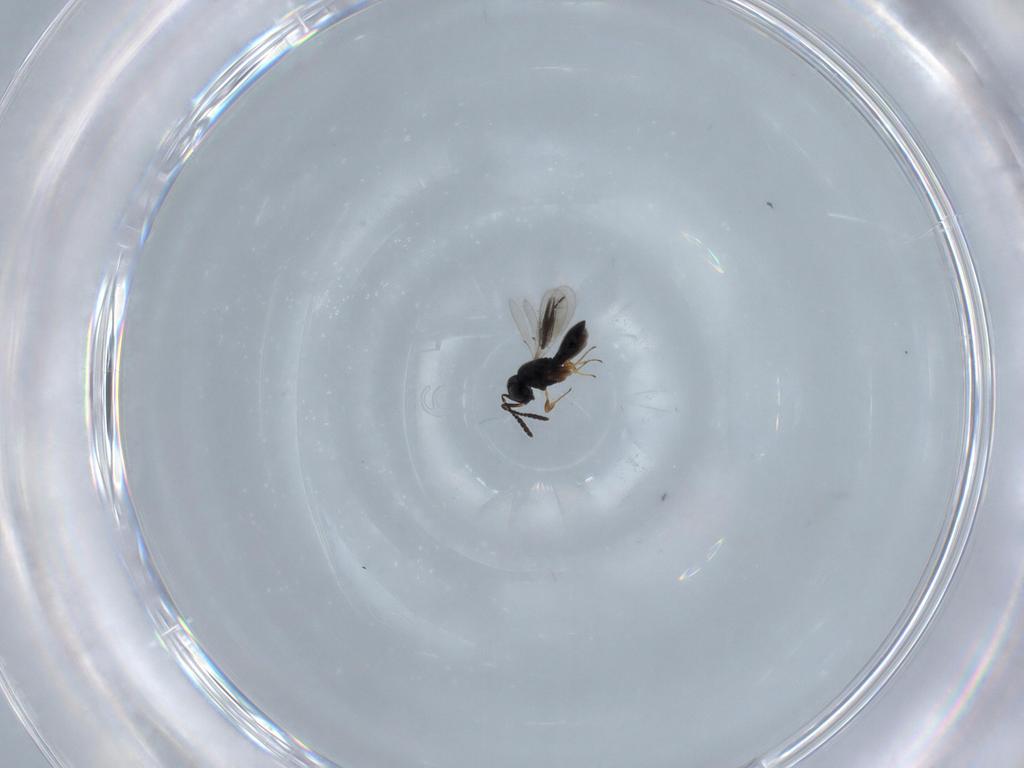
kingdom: Animalia
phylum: Arthropoda
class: Insecta
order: Hymenoptera
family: Scelionidae
